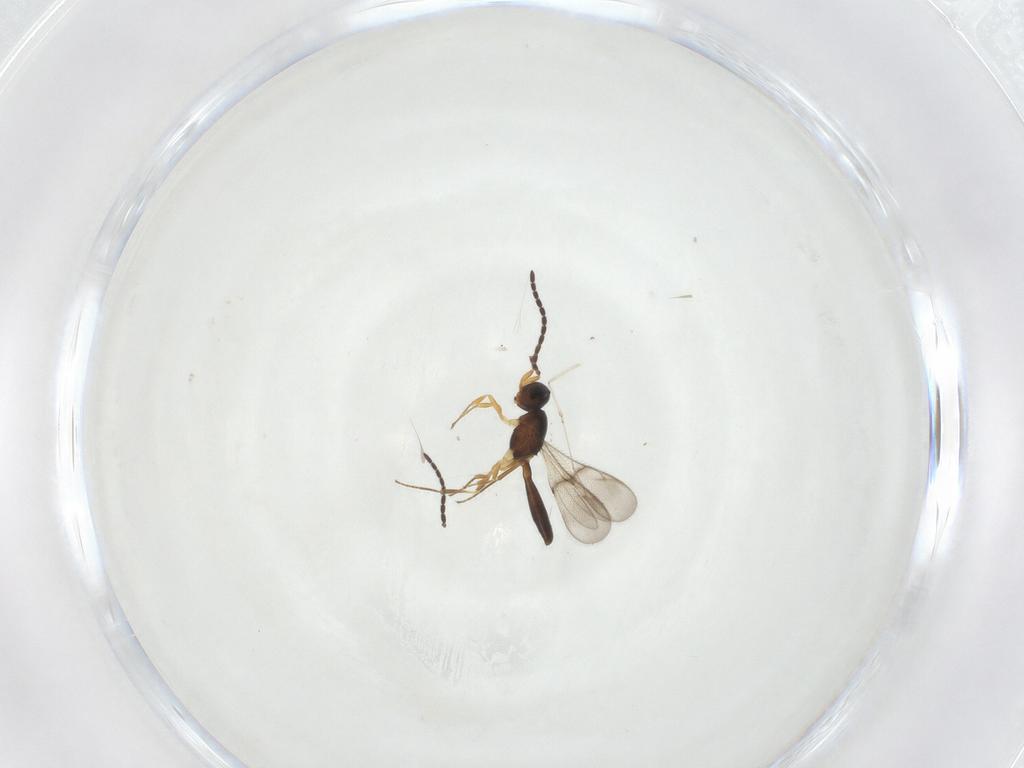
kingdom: Animalia
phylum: Arthropoda
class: Insecta
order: Hymenoptera
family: Scelionidae
